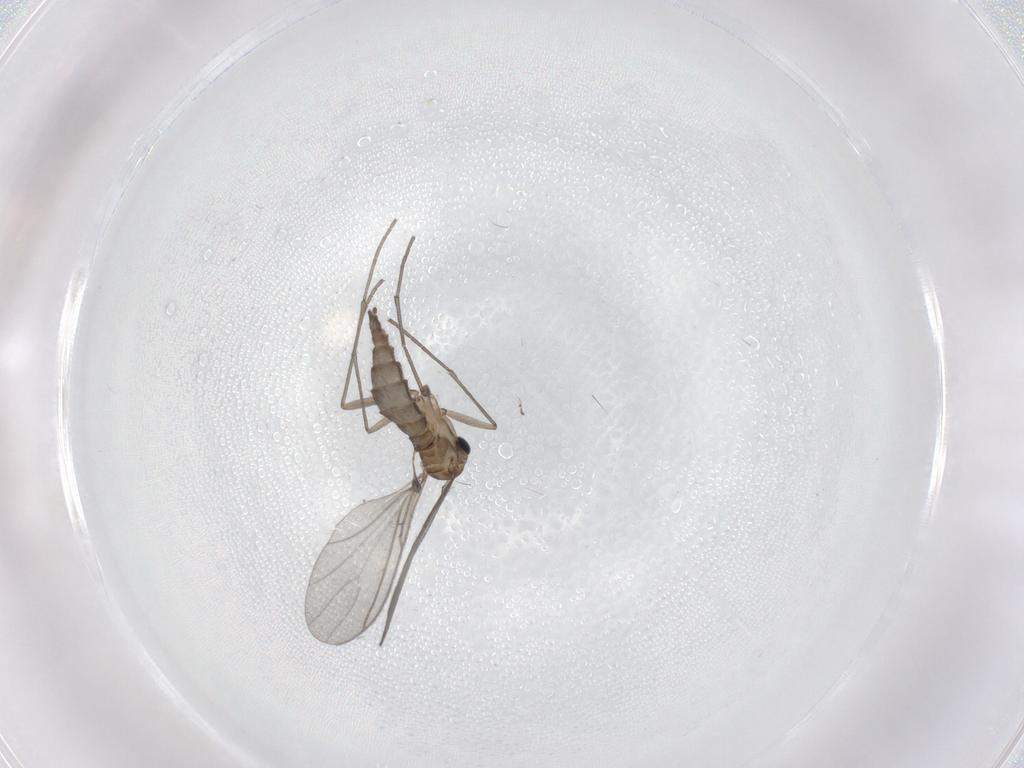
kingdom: Animalia
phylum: Arthropoda
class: Insecta
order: Diptera
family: Sciaridae
